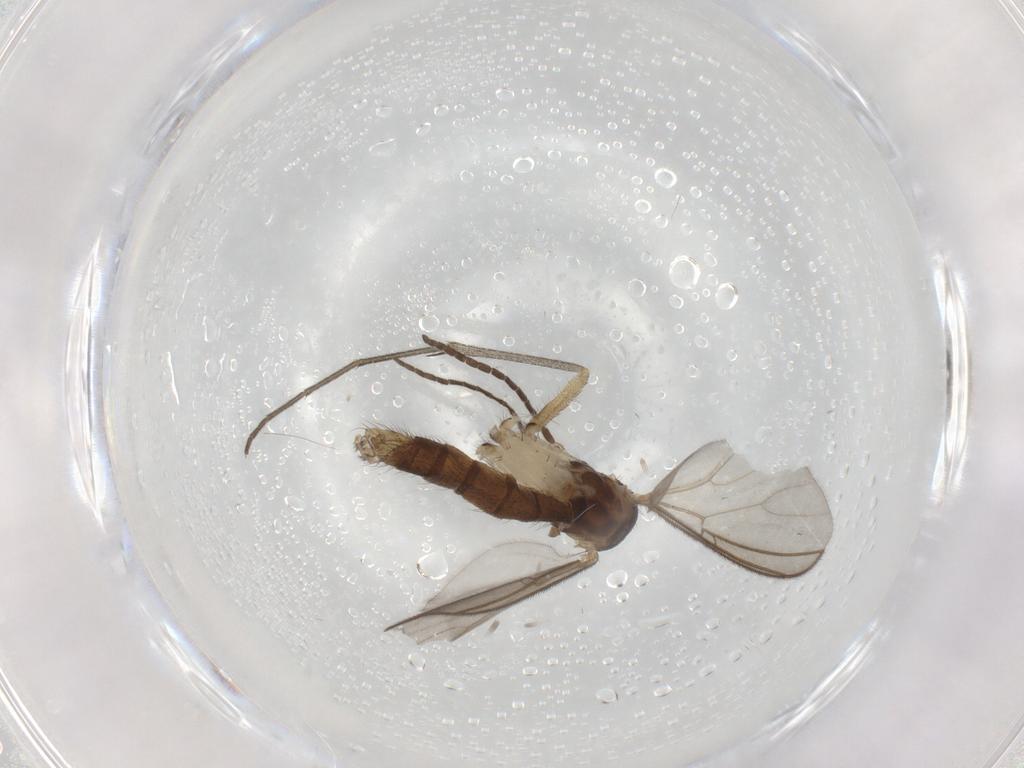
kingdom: Animalia
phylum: Arthropoda
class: Insecta
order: Diptera
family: Phoridae
